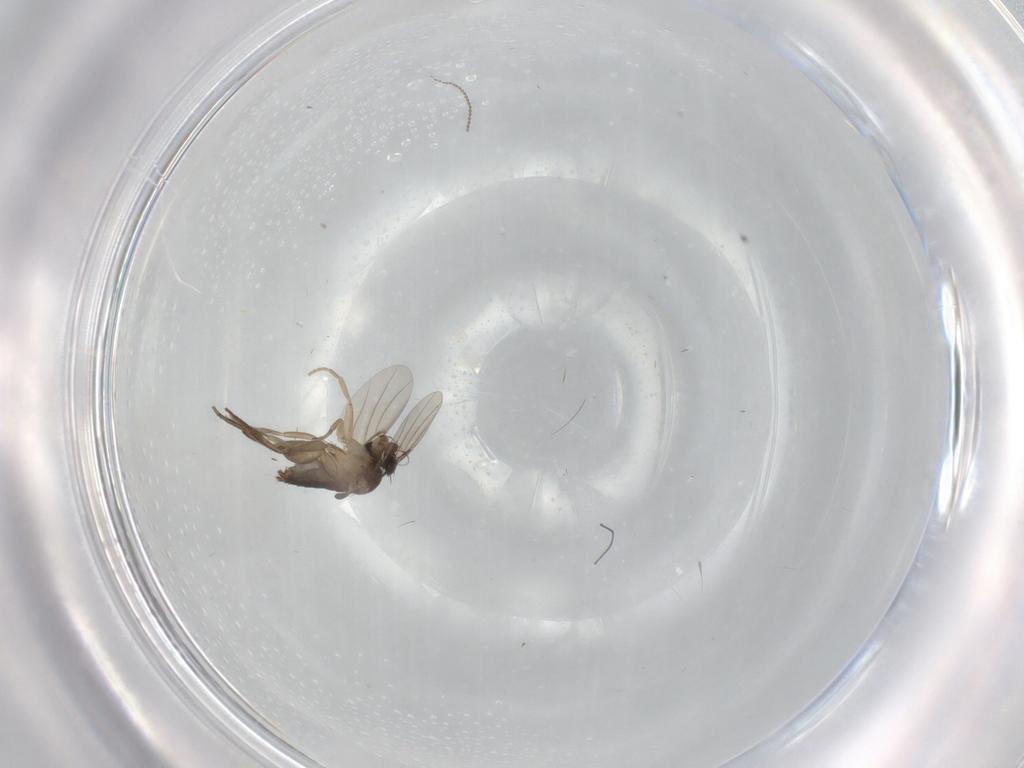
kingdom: Animalia
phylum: Arthropoda
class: Insecta
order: Diptera
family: Phoridae
